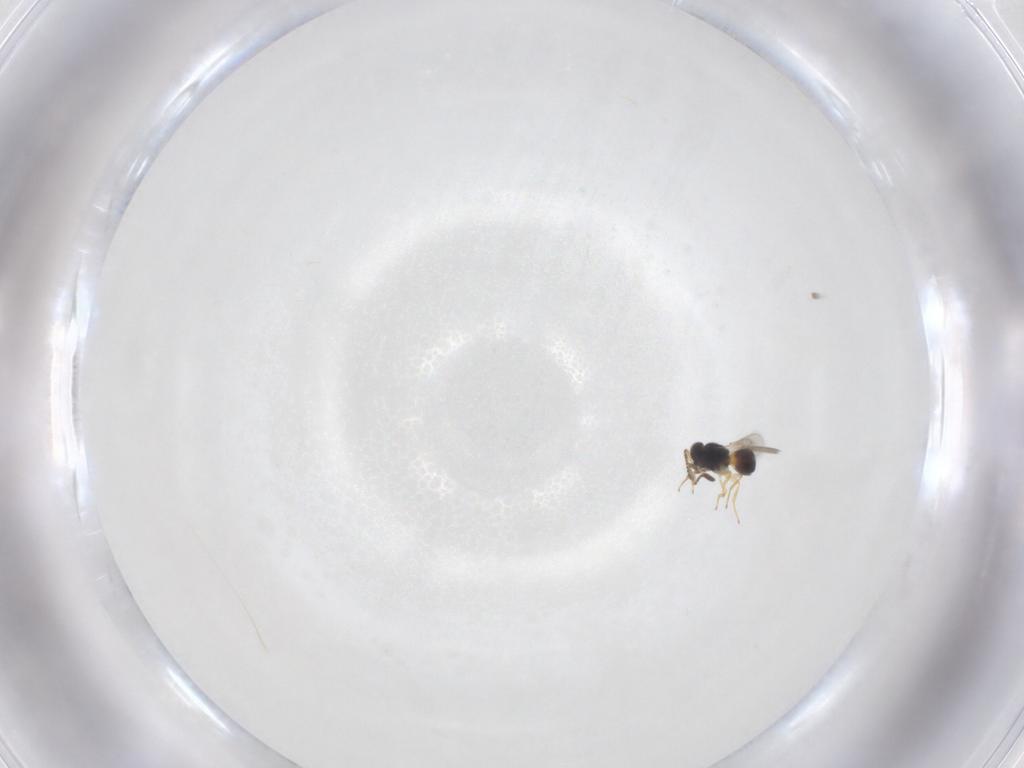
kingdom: Animalia
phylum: Arthropoda
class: Insecta
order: Hymenoptera
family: Scelionidae
